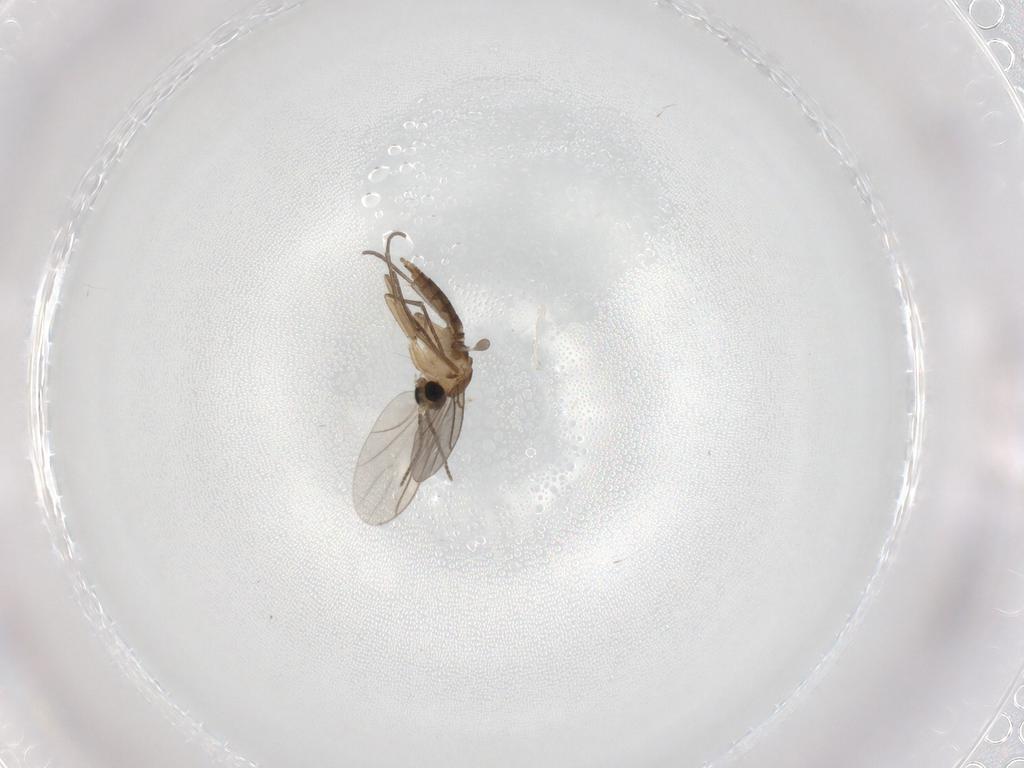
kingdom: Animalia
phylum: Arthropoda
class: Insecta
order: Diptera
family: Sciaridae
